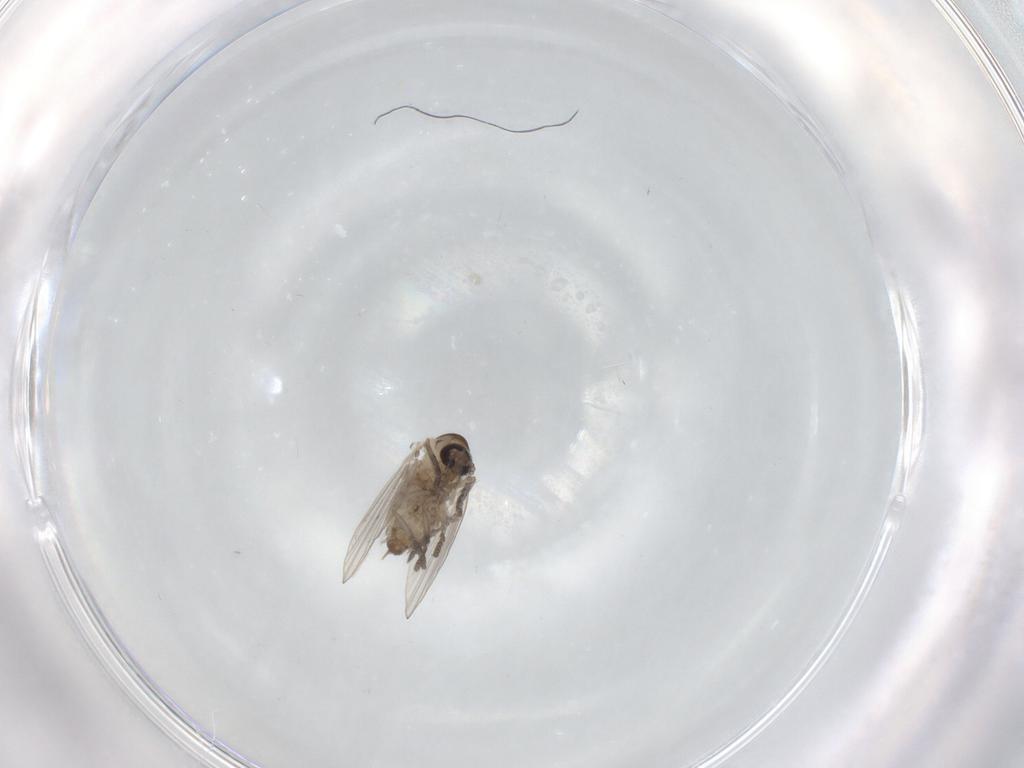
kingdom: Animalia
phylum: Arthropoda
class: Insecta
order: Diptera
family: Psychodidae
